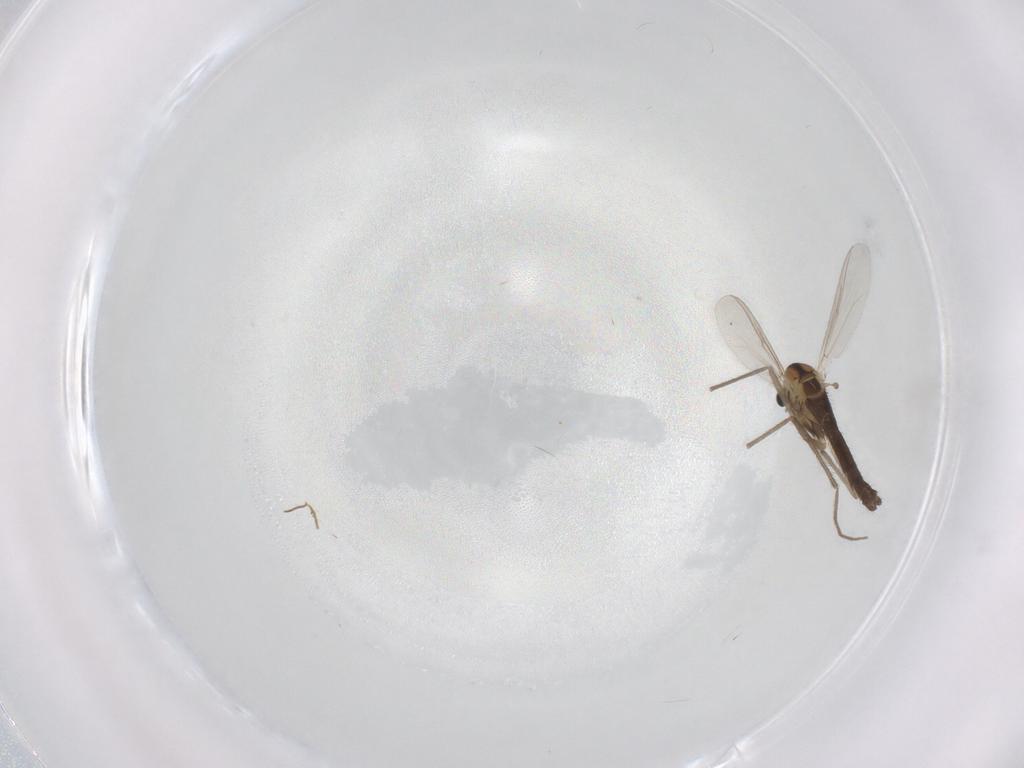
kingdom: Animalia
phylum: Arthropoda
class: Insecta
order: Diptera
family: Chironomidae
